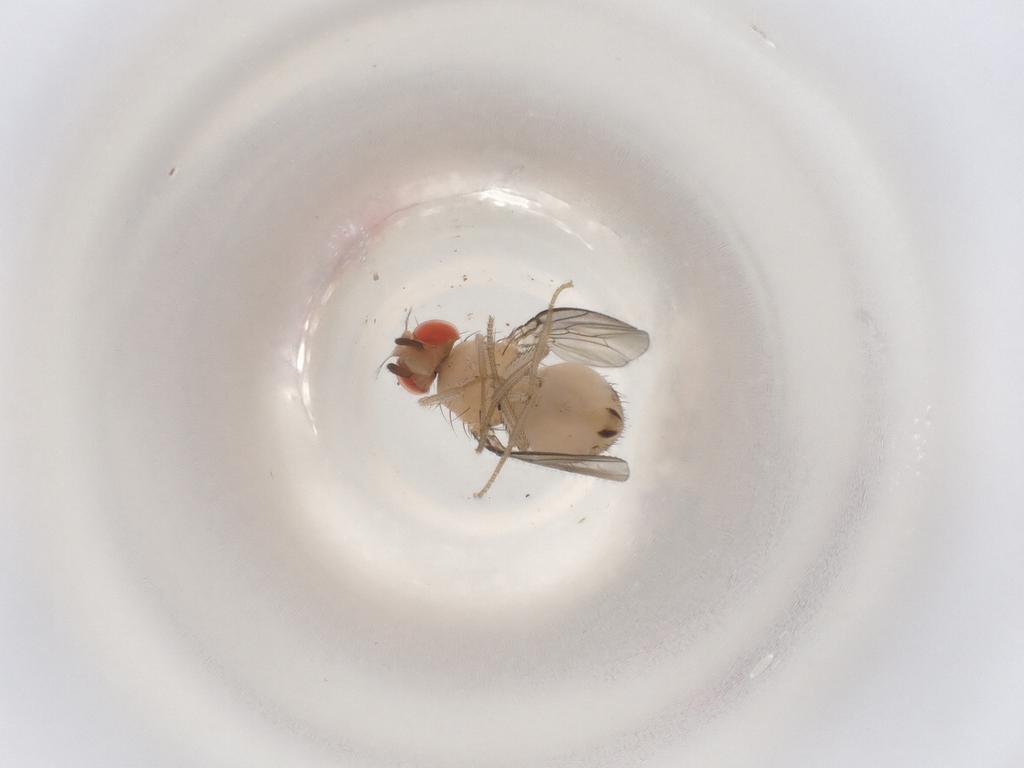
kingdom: Animalia
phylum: Arthropoda
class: Insecta
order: Diptera
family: Drosophilidae
